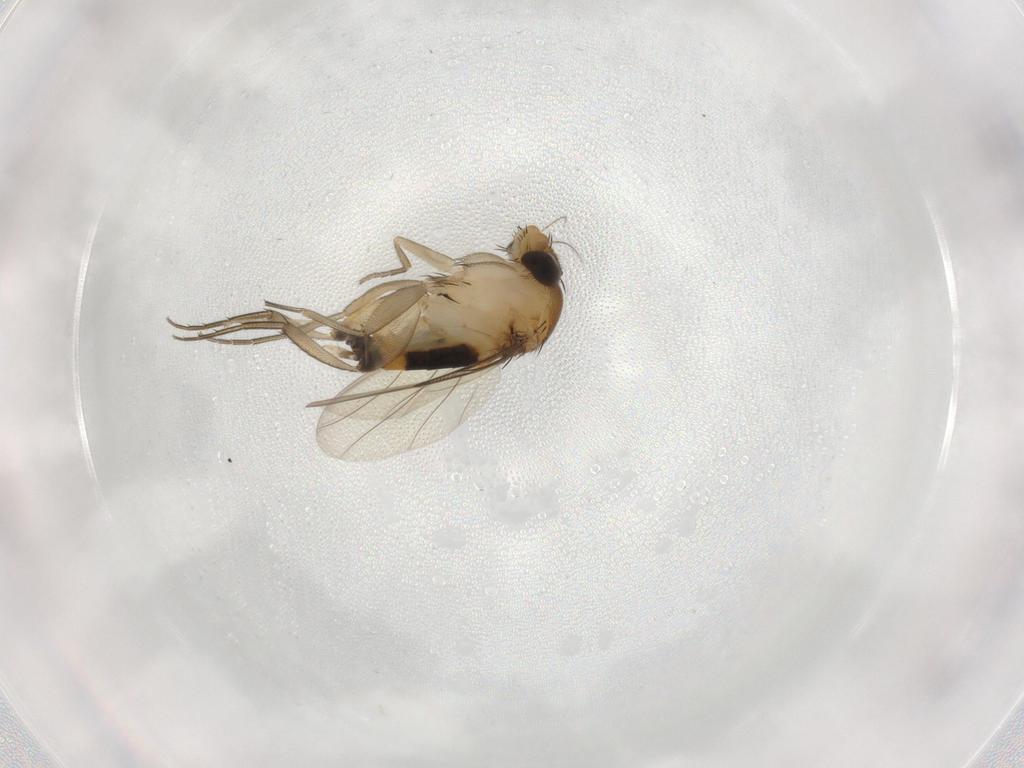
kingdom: Animalia
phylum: Arthropoda
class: Insecta
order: Diptera
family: Phoridae
